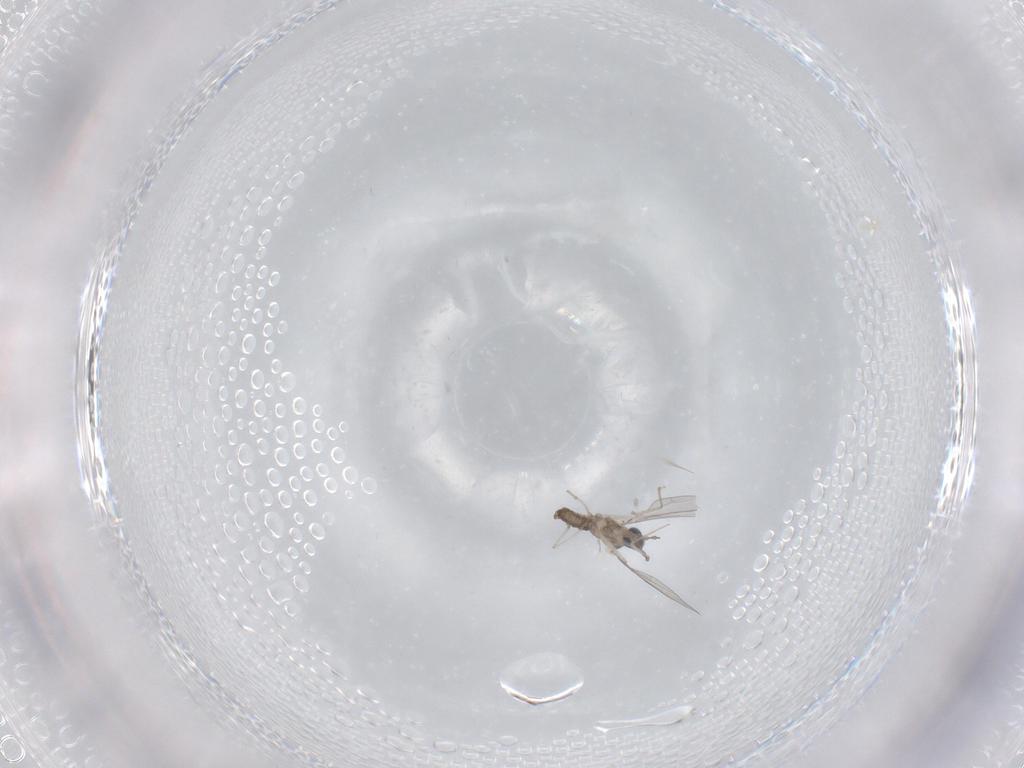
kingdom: Animalia
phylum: Arthropoda
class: Insecta
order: Diptera
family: Cecidomyiidae
